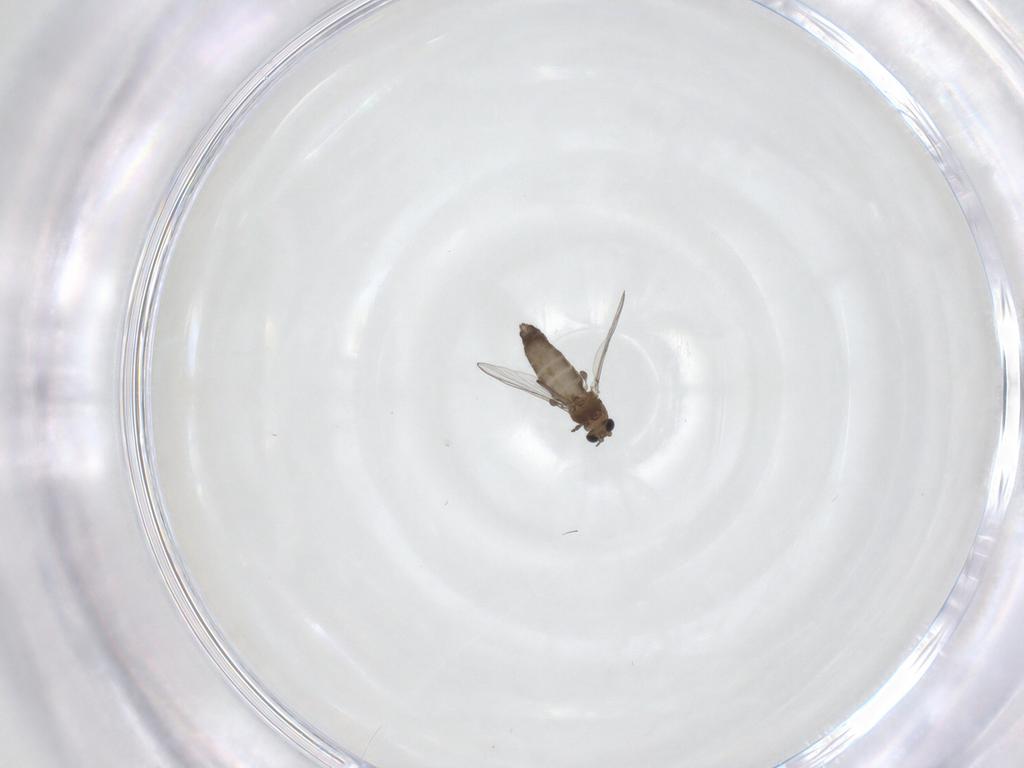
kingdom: Animalia
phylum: Arthropoda
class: Insecta
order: Diptera
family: Chironomidae
